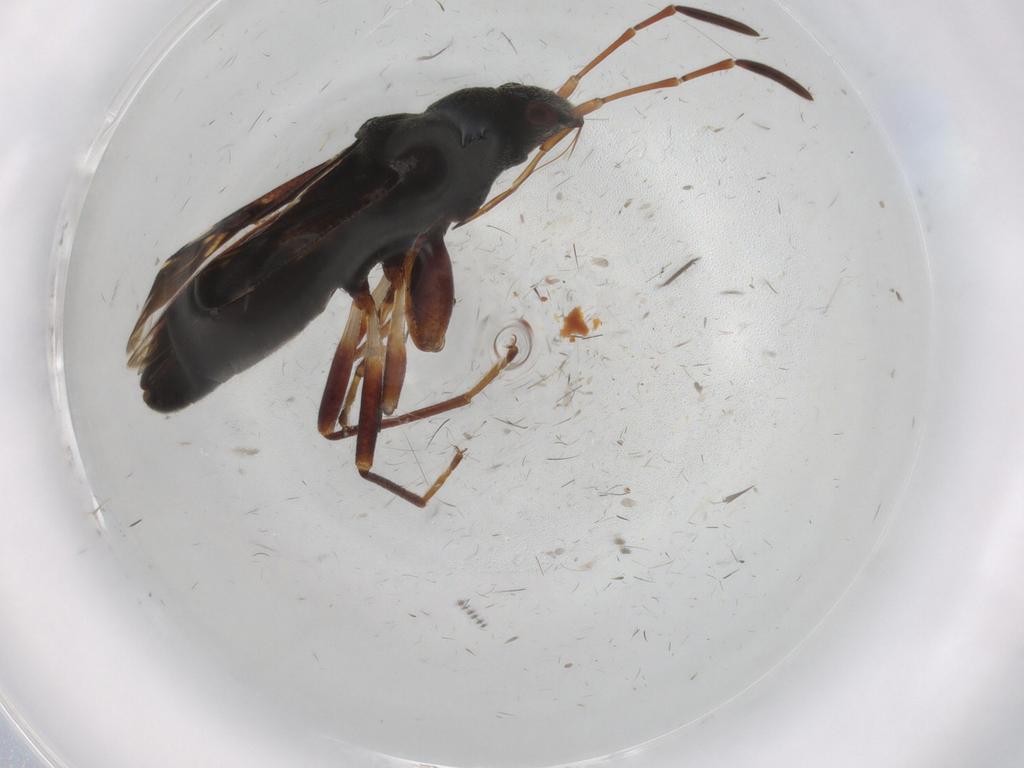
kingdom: Animalia
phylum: Arthropoda
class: Insecta
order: Hemiptera
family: Rhyparochromidae
